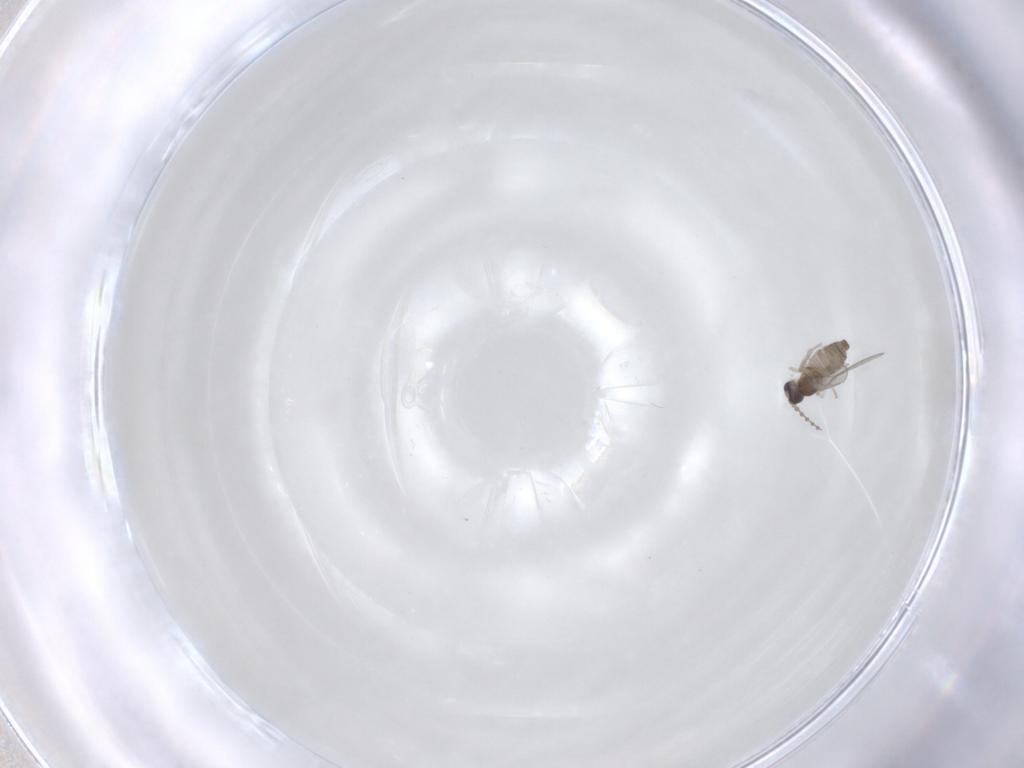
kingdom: Animalia
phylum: Arthropoda
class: Insecta
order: Diptera
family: Cecidomyiidae
